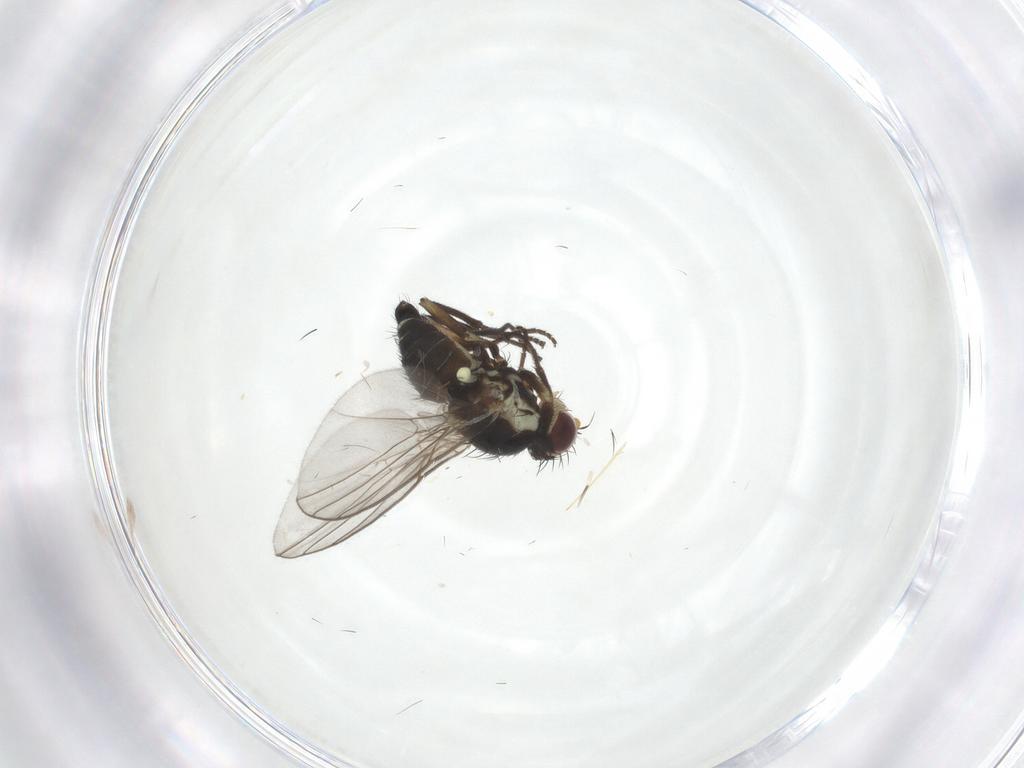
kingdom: Animalia
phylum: Arthropoda
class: Insecta
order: Diptera
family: Agromyzidae
